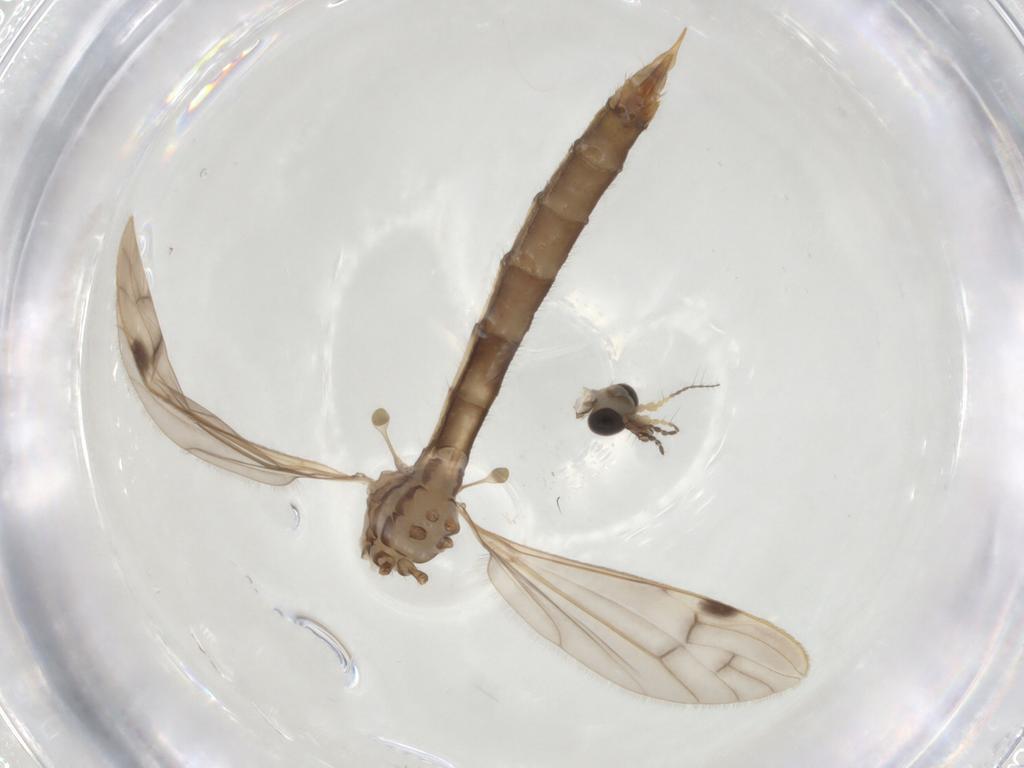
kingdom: Animalia
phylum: Arthropoda
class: Insecta
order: Diptera
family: Limoniidae
